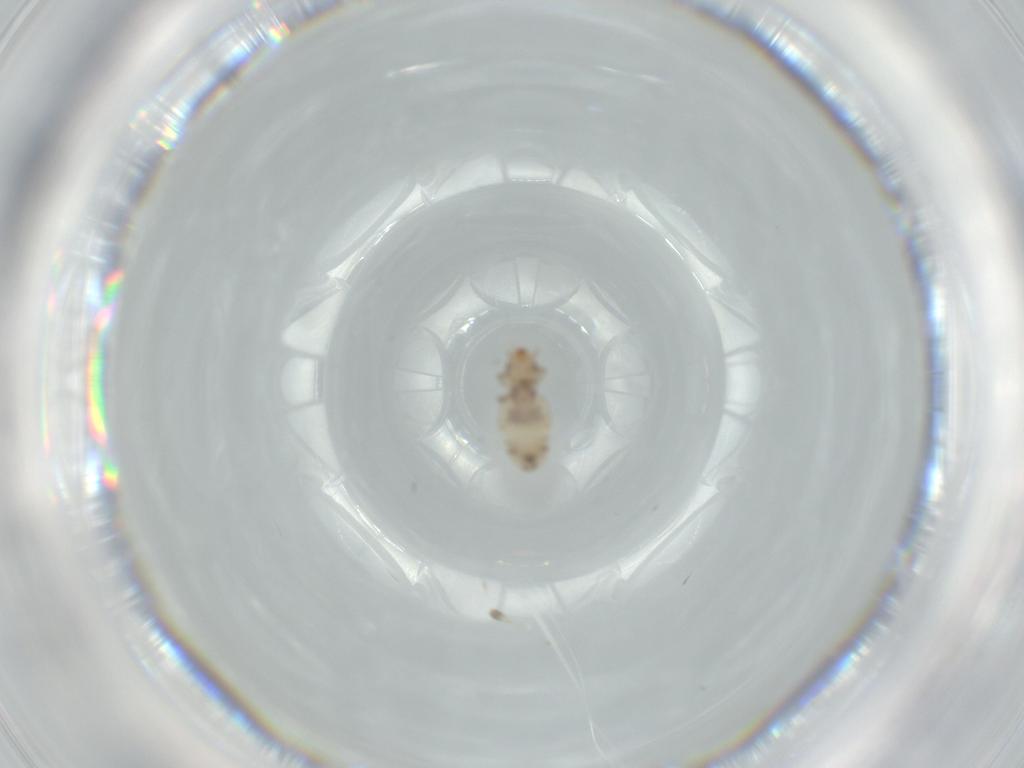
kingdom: Animalia
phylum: Arthropoda
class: Insecta
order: Psocodea
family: Liposcelididae
